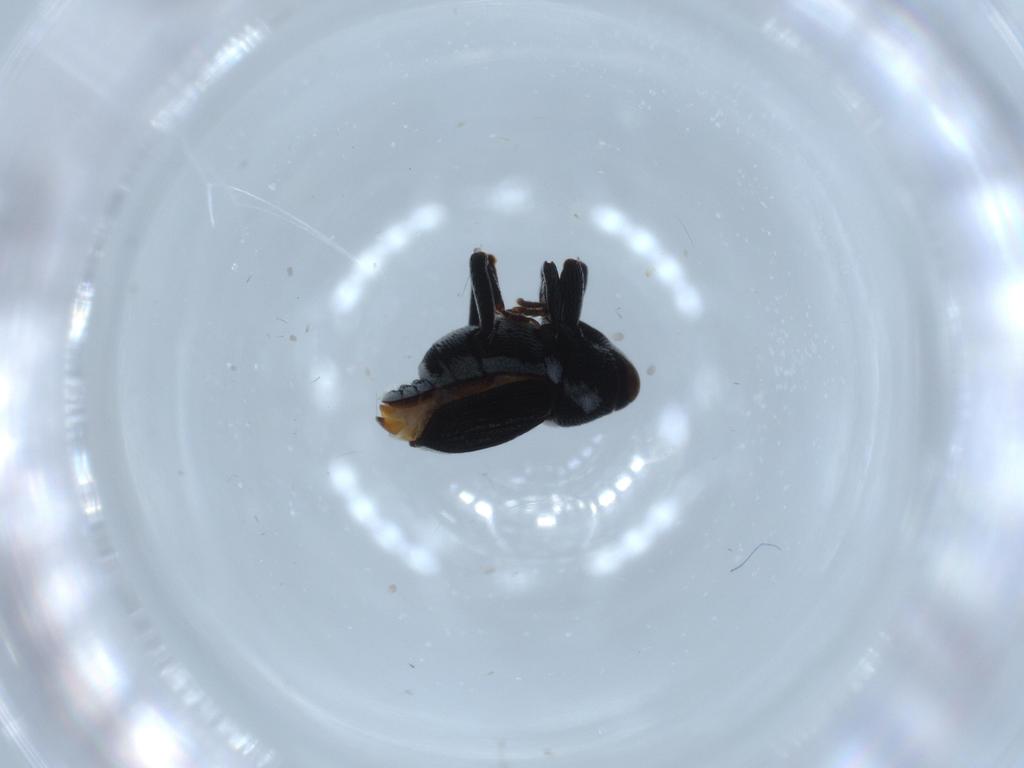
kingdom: Animalia
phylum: Arthropoda
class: Insecta
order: Coleoptera
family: Curculionidae
